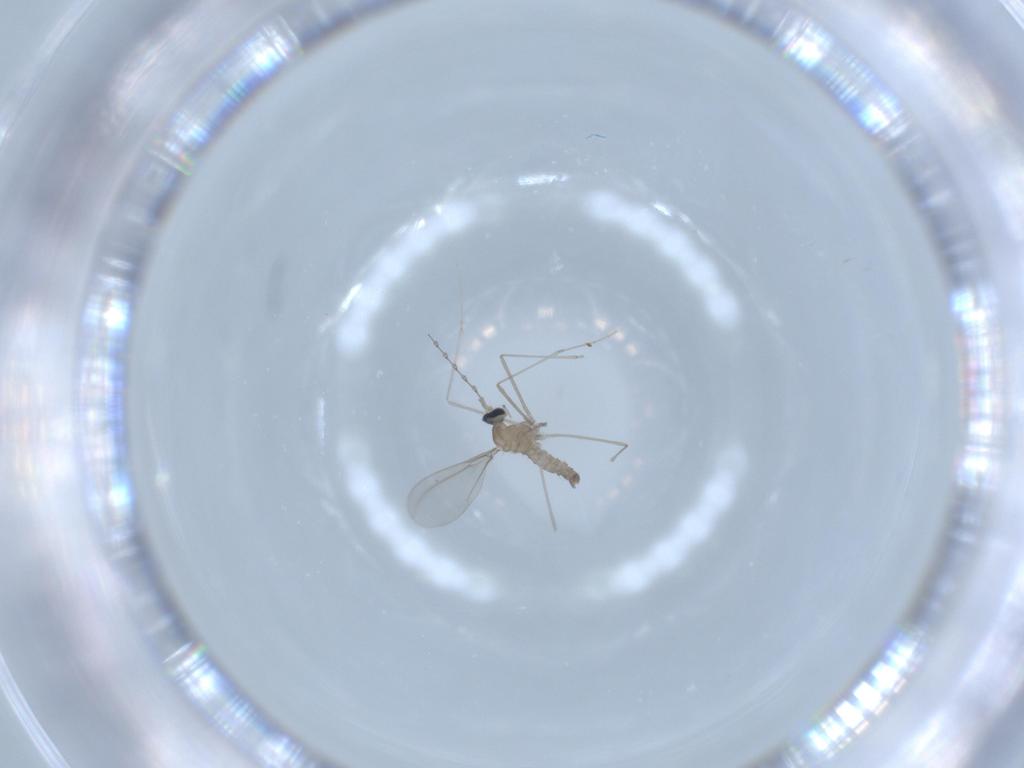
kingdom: Animalia
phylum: Arthropoda
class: Insecta
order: Diptera
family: Cecidomyiidae
